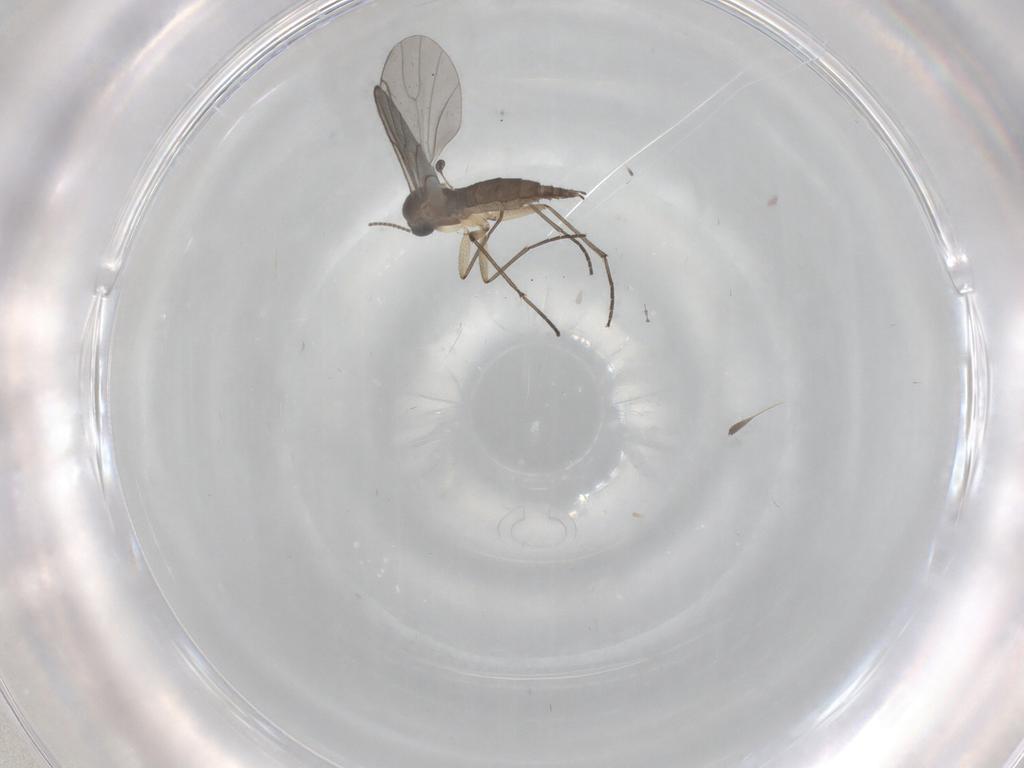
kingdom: Animalia
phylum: Arthropoda
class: Insecta
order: Diptera
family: Sciaridae
